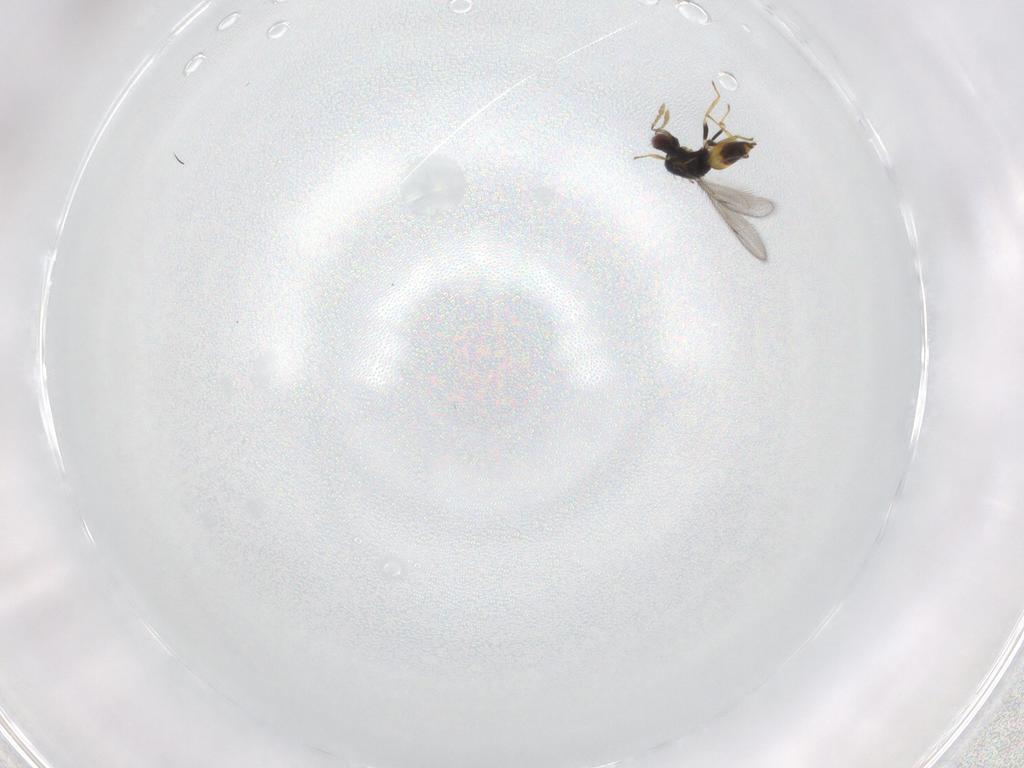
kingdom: Animalia
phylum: Arthropoda
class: Insecta
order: Hymenoptera
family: Eulophidae
